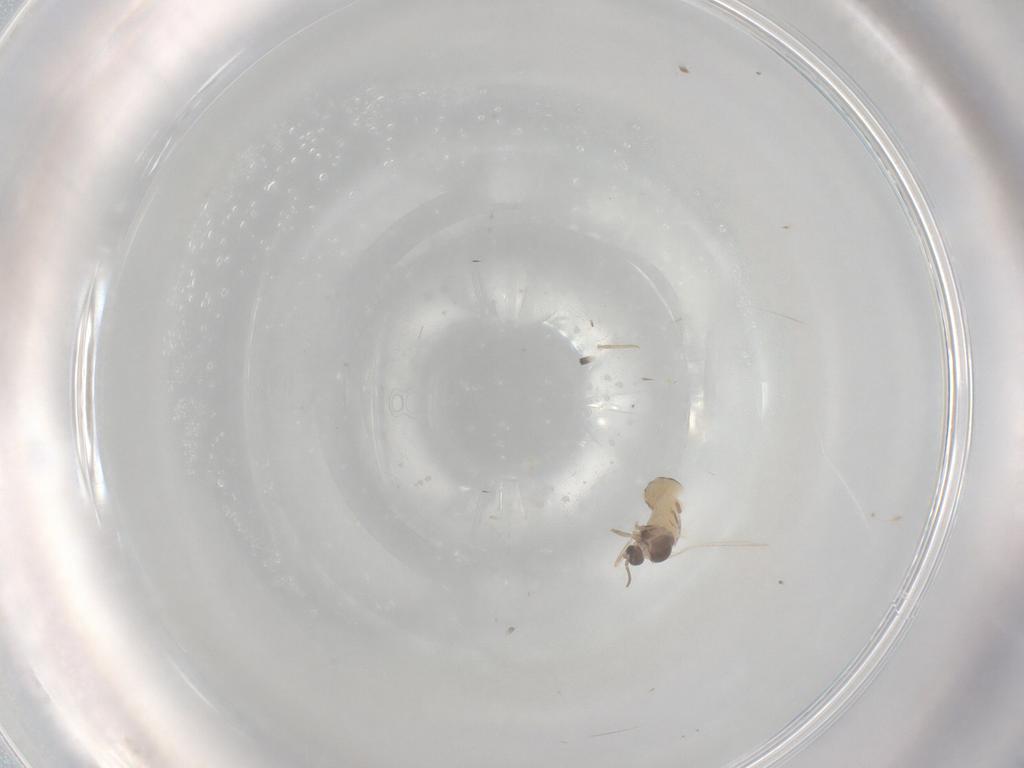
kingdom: Animalia
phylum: Arthropoda
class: Insecta
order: Diptera
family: Cecidomyiidae
